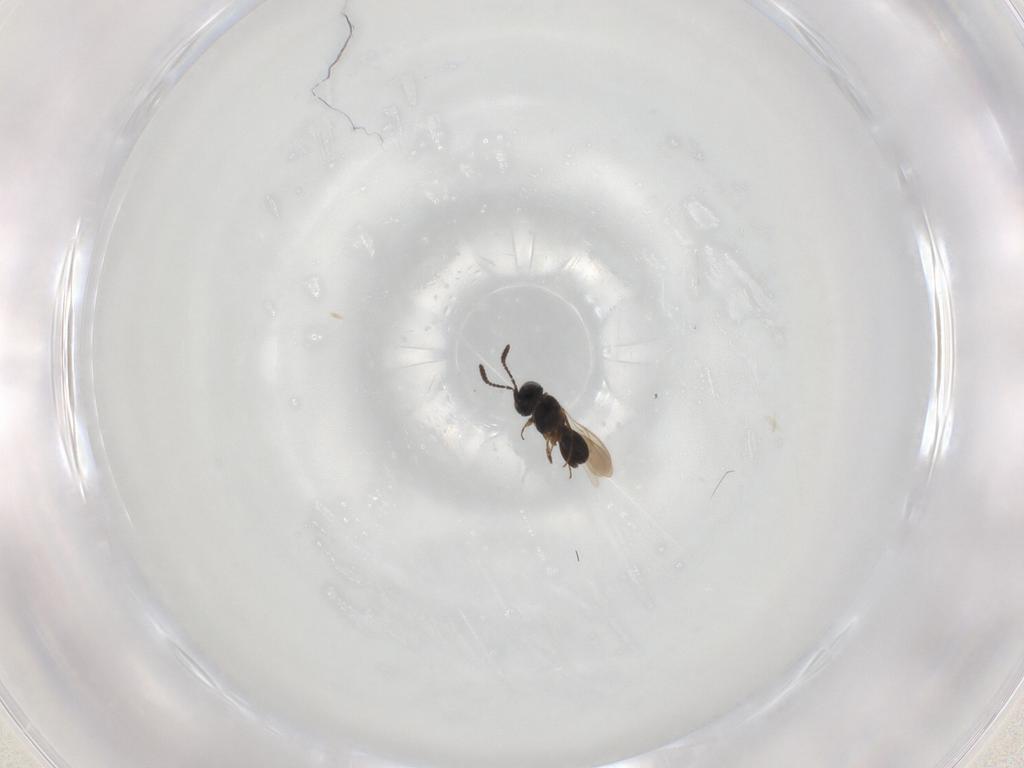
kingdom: Animalia
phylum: Arthropoda
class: Insecta
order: Hymenoptera
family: Scelionidae
